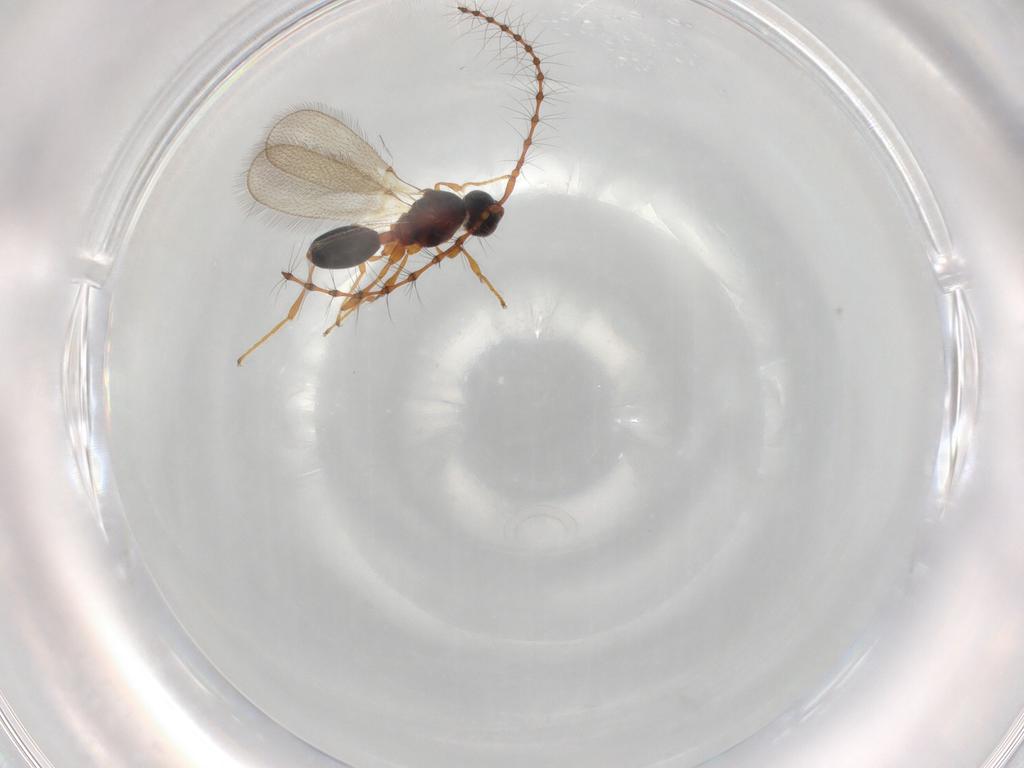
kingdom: Animalia
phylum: Arthropoda
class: Insecta
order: Hymenoptera
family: Diapriidae
